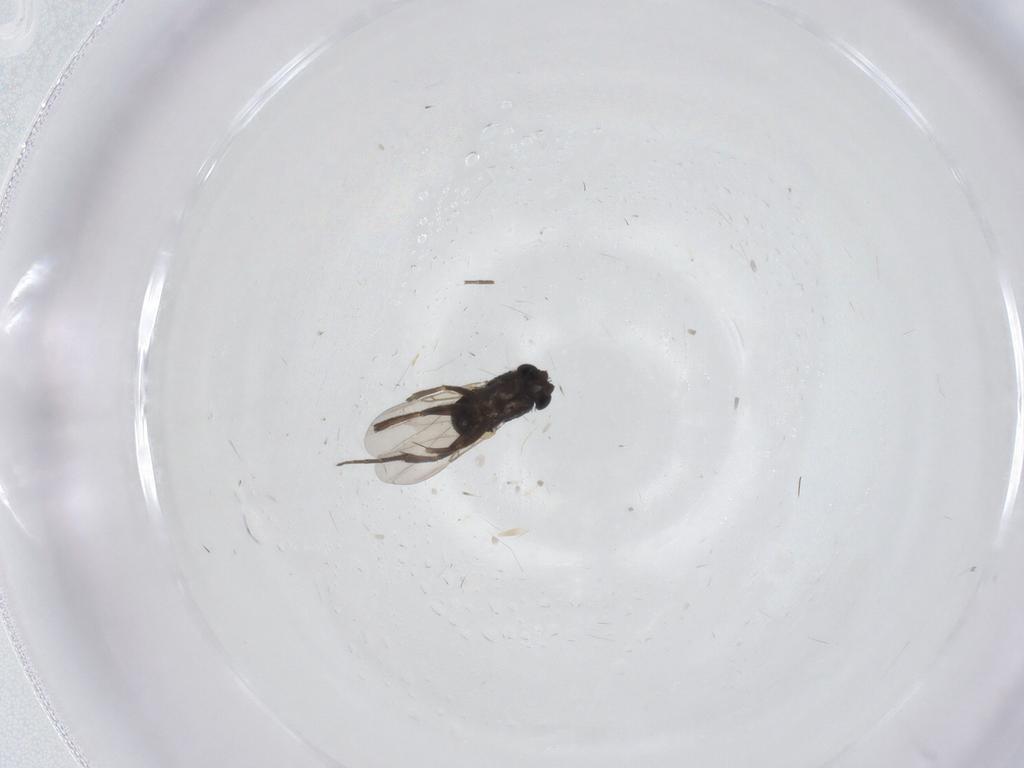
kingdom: Animalia
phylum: Arthropoda
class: Insecta
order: Diptera
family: Phoridae
